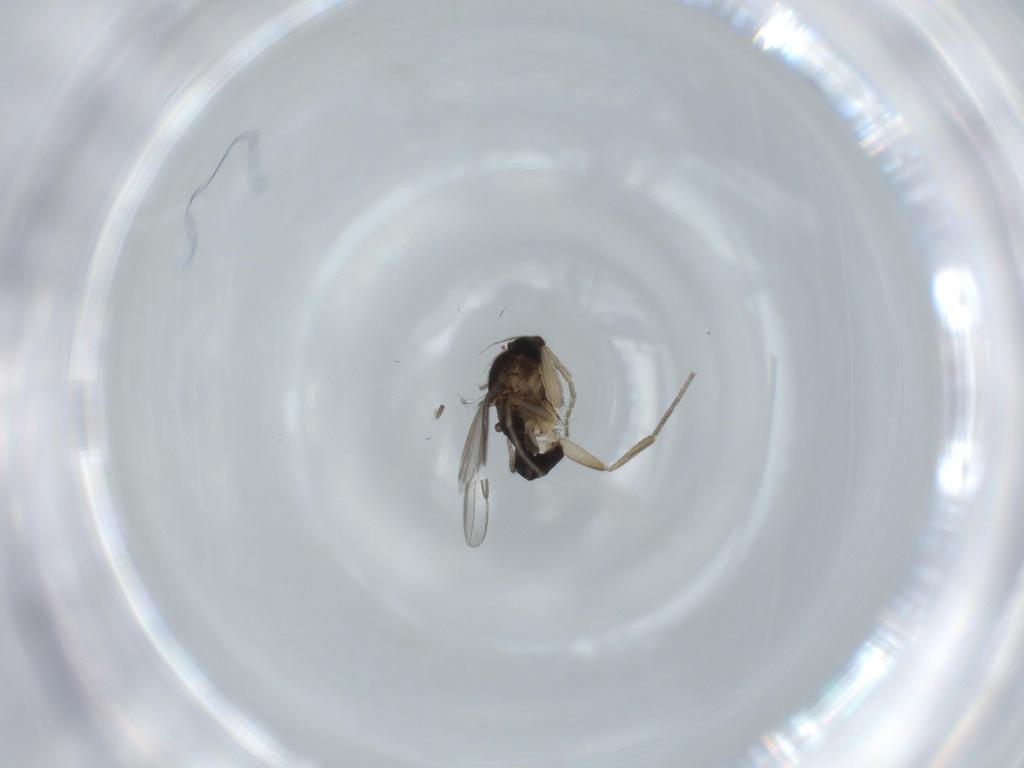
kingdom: Animalia
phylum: Arthropoda
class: Insecta
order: Diptera
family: Phoridae
